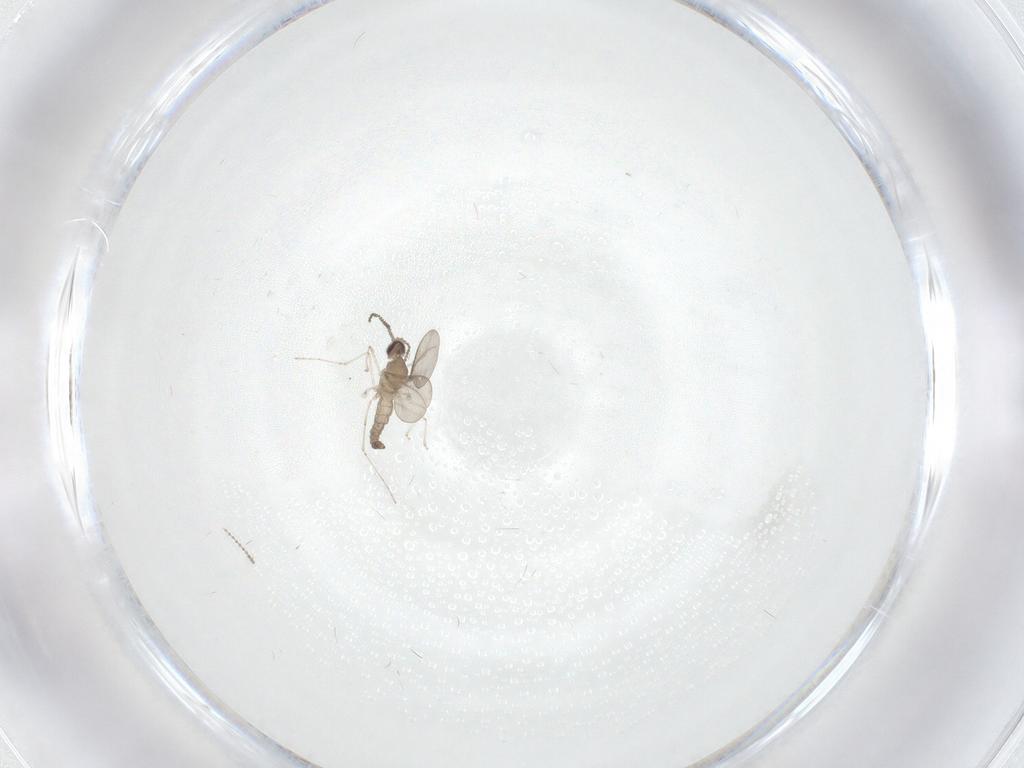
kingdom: Animalia
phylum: Arthropoda
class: Insecta
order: Diptera
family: Cecidomyiidae
